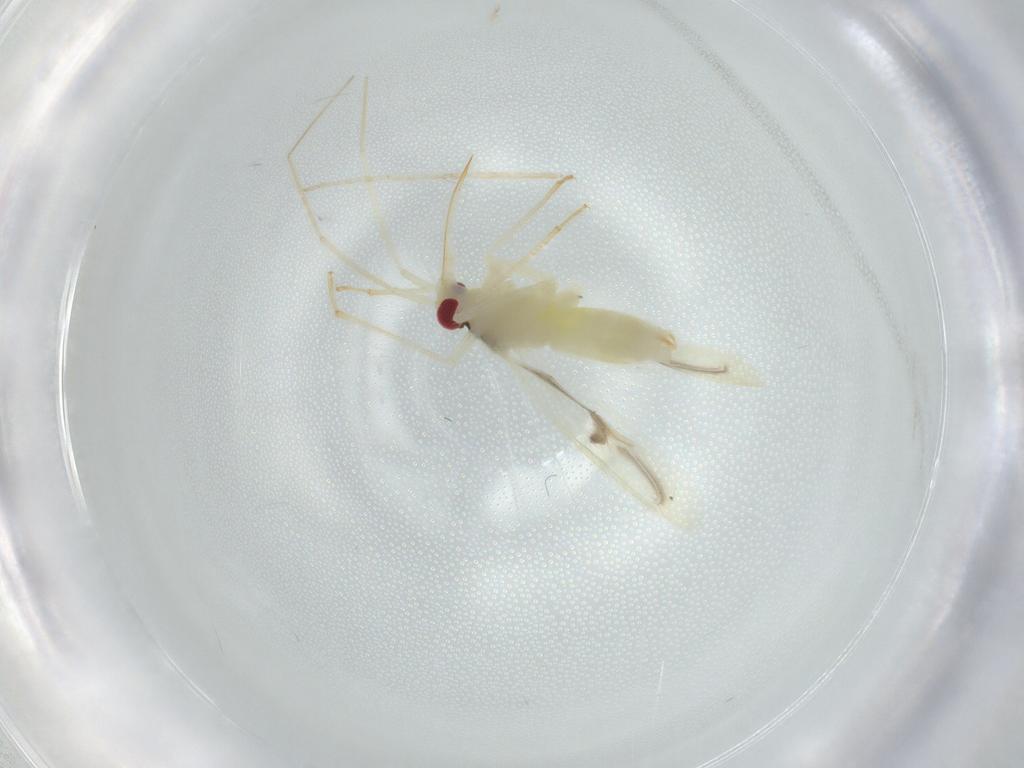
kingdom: Animalia
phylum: Arthropoda
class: Insecta
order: Hemiptera
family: Miridae
